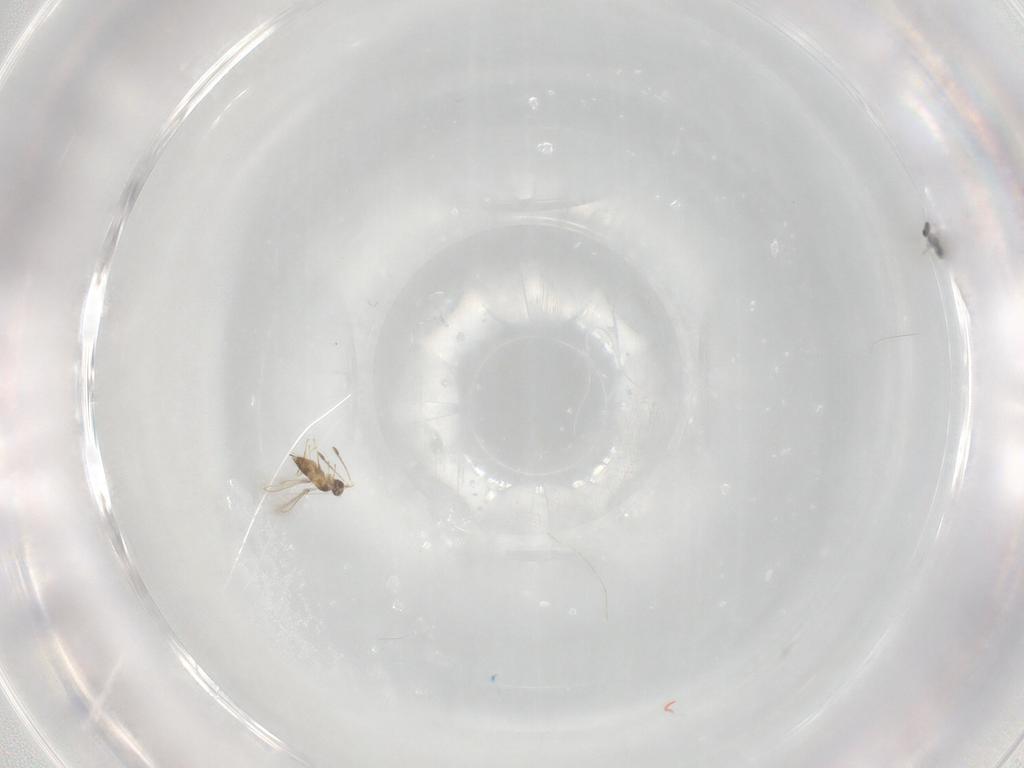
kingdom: Animalia
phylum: Arthropoda
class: Insecta
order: Hymenoptera
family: Mymaridae
